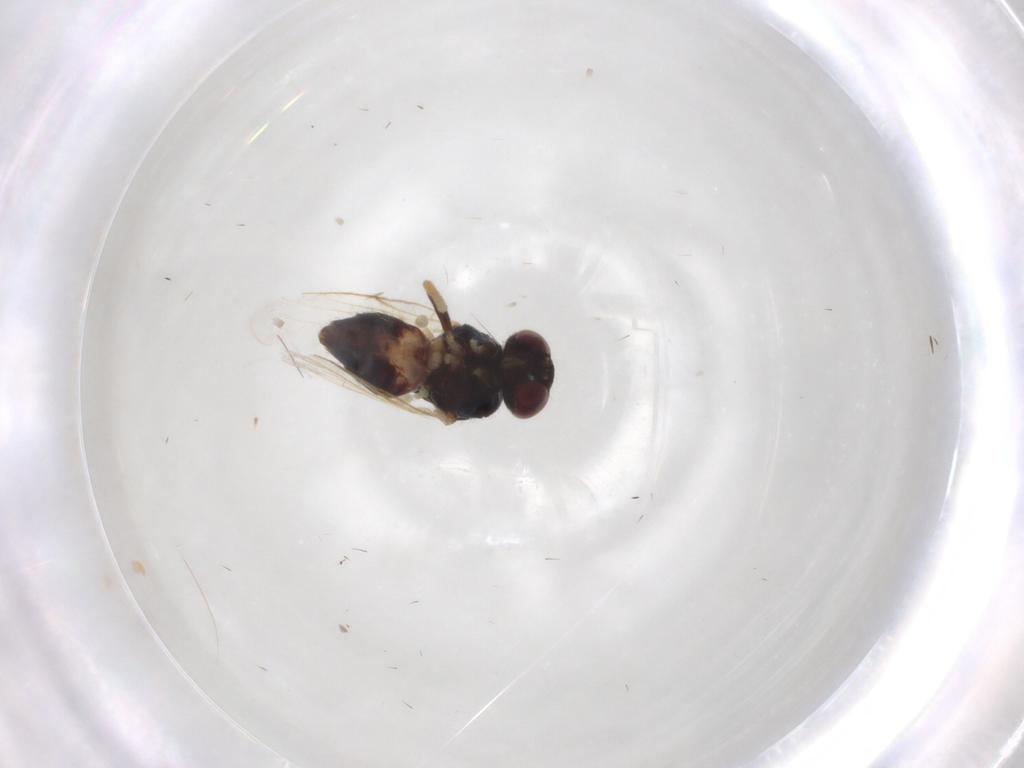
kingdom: Animalia
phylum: Arthropoda
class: Insecta
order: Diptera
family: Chloropidae
